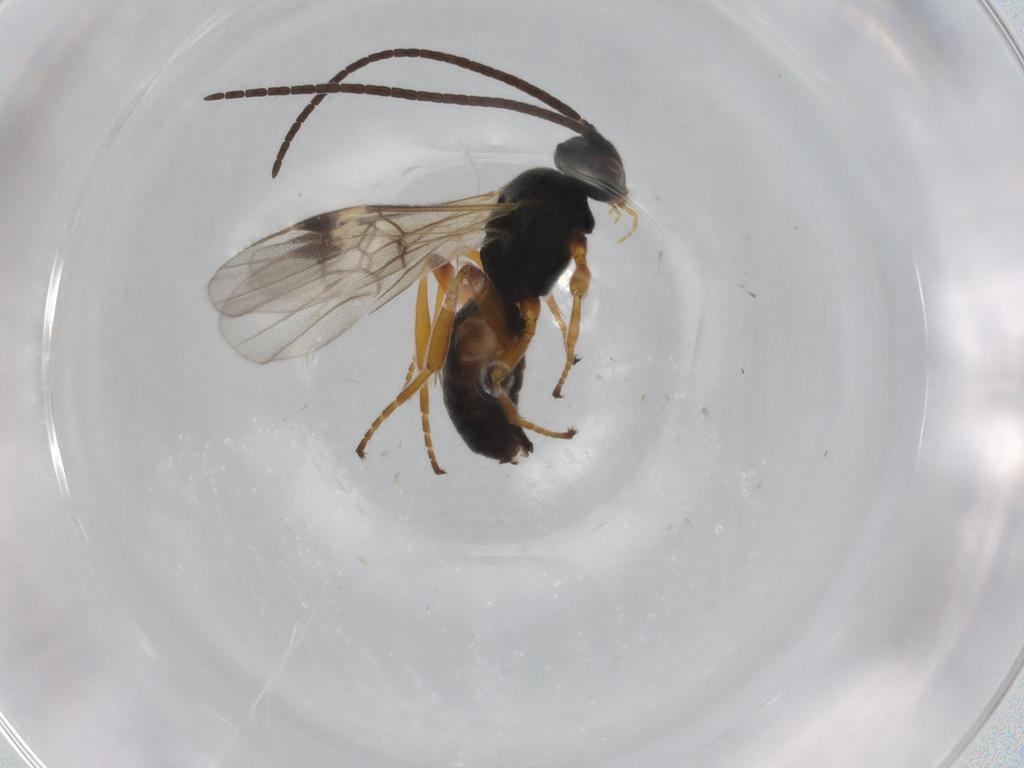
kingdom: Animalia
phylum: Arthropoda
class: Insecta
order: Hymenoptera
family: Braconidae
